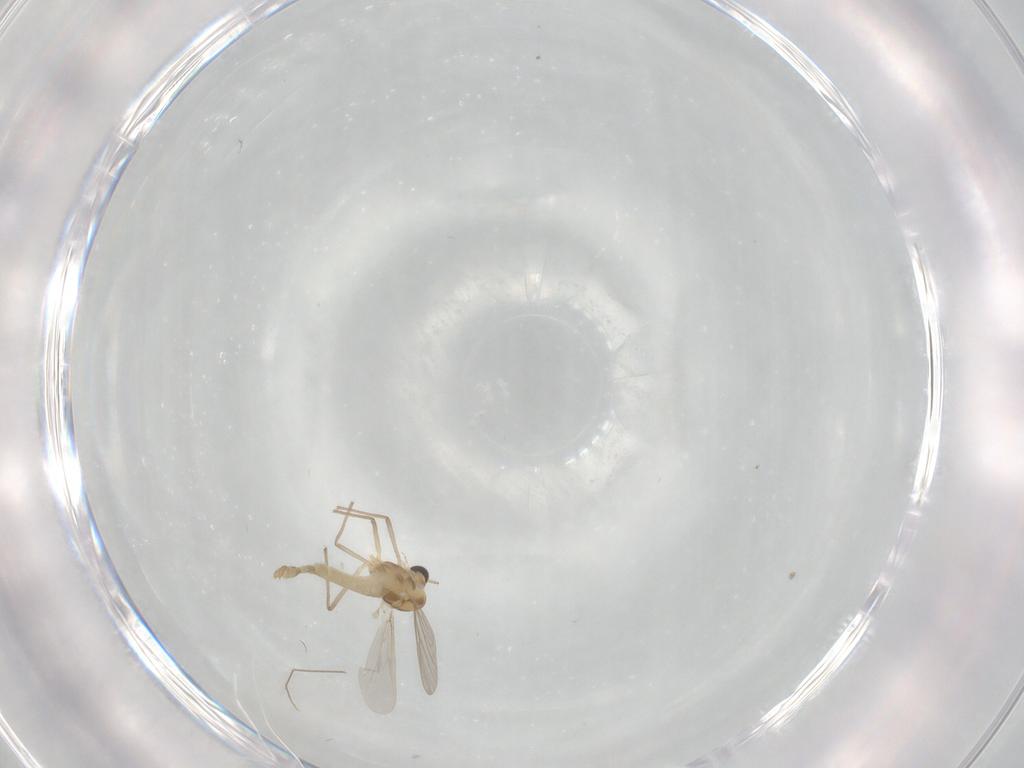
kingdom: Animalia
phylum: Arthropoda
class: Insecta
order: Diptera
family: Chironomidae
